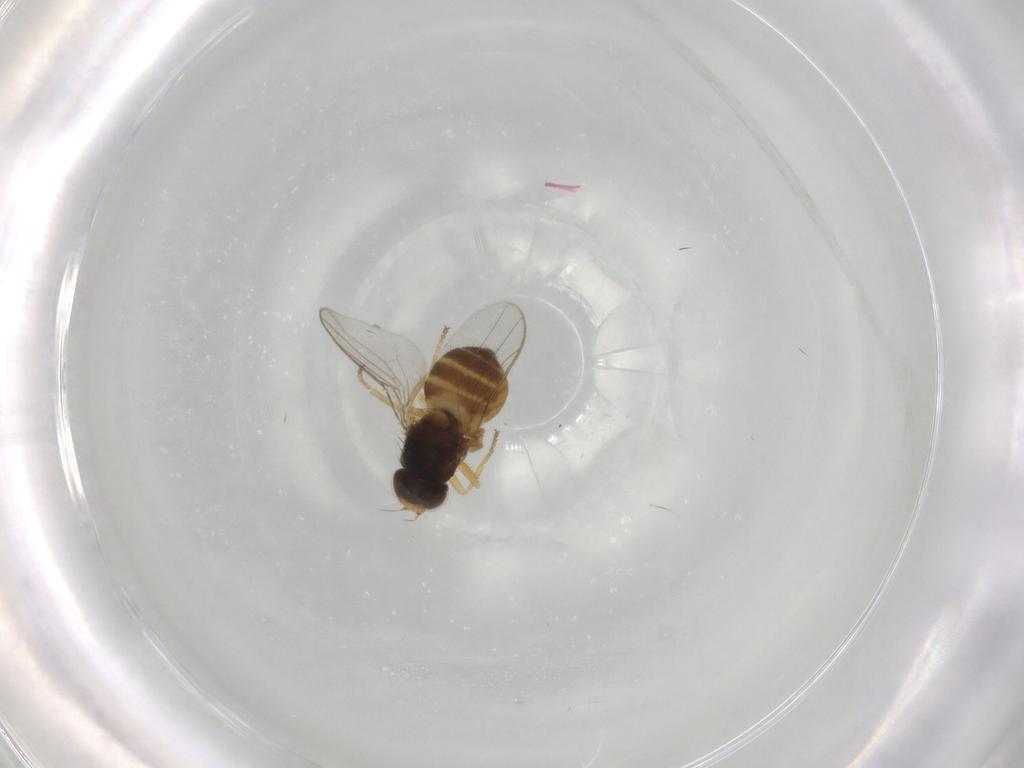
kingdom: Animalia
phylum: Arthropoda
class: Insecta
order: Diptera
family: Chloropidae
